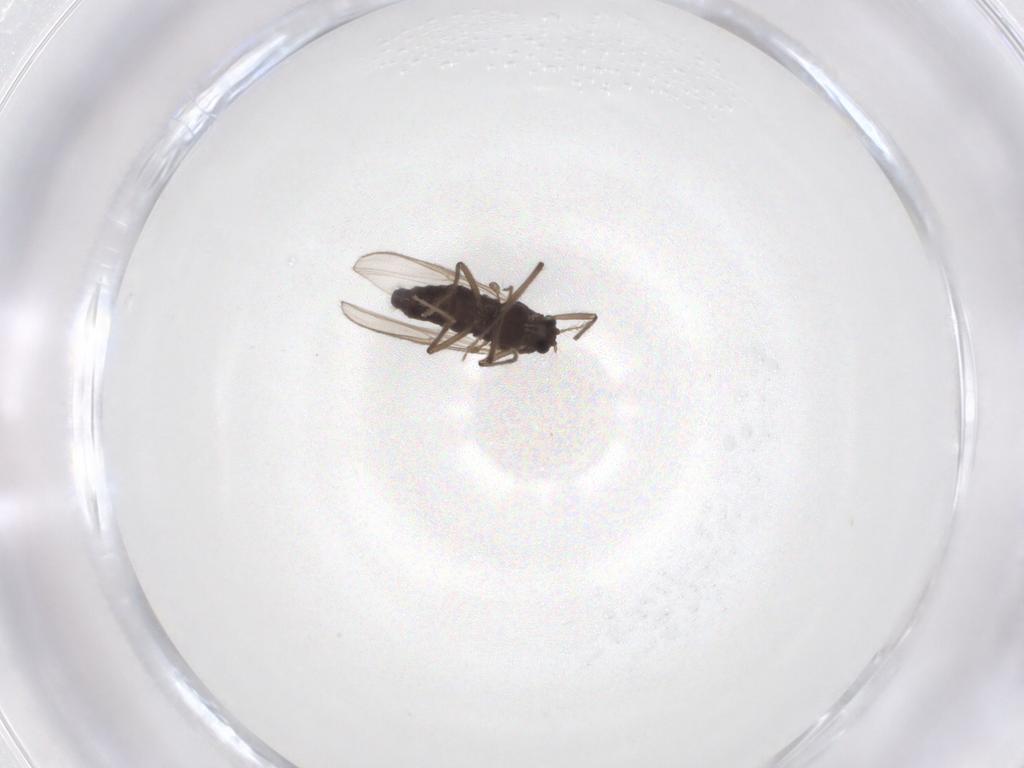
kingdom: Animalia
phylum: Arthropoda
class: Insecta
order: Diptera
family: Chironomidae
